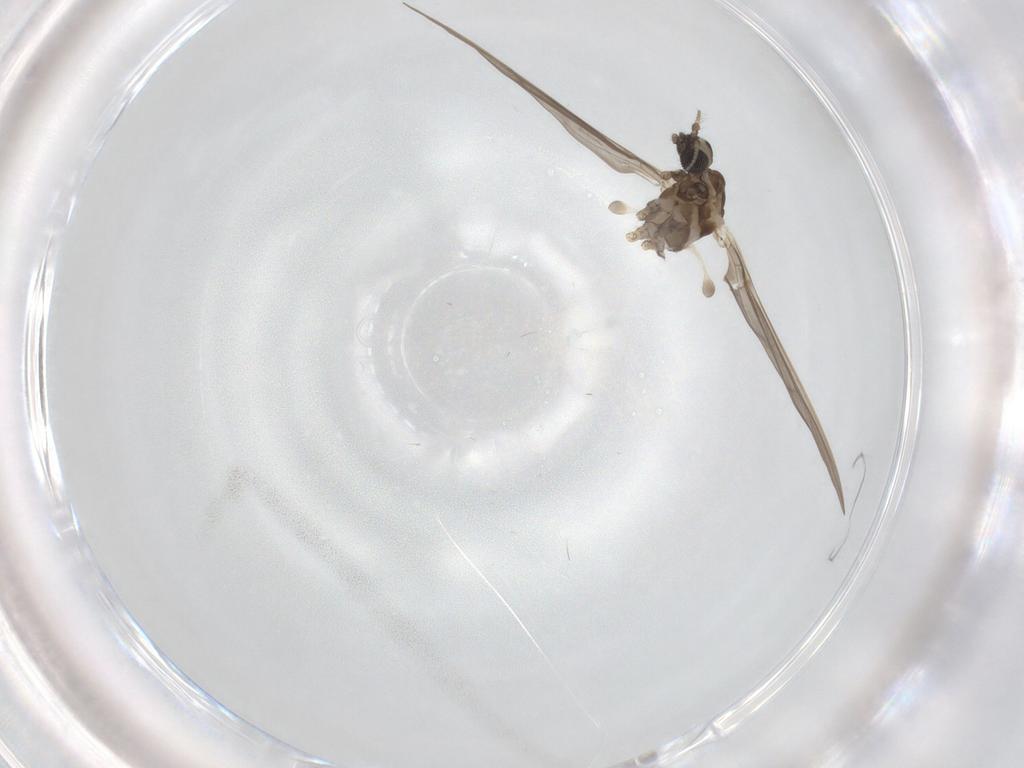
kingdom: Animalia
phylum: Arthropoda
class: Insecta
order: Diptera
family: Limoniidae
